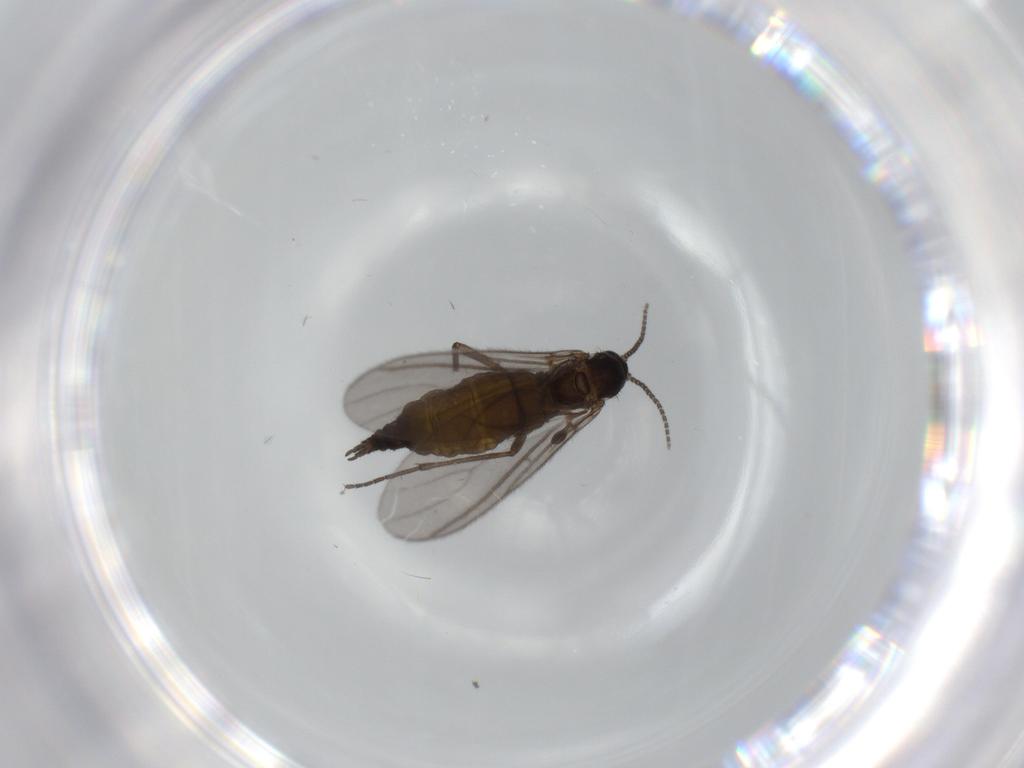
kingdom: Animalia
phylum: Arthropoda
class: Insecta
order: Diptera
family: Sciaridae
